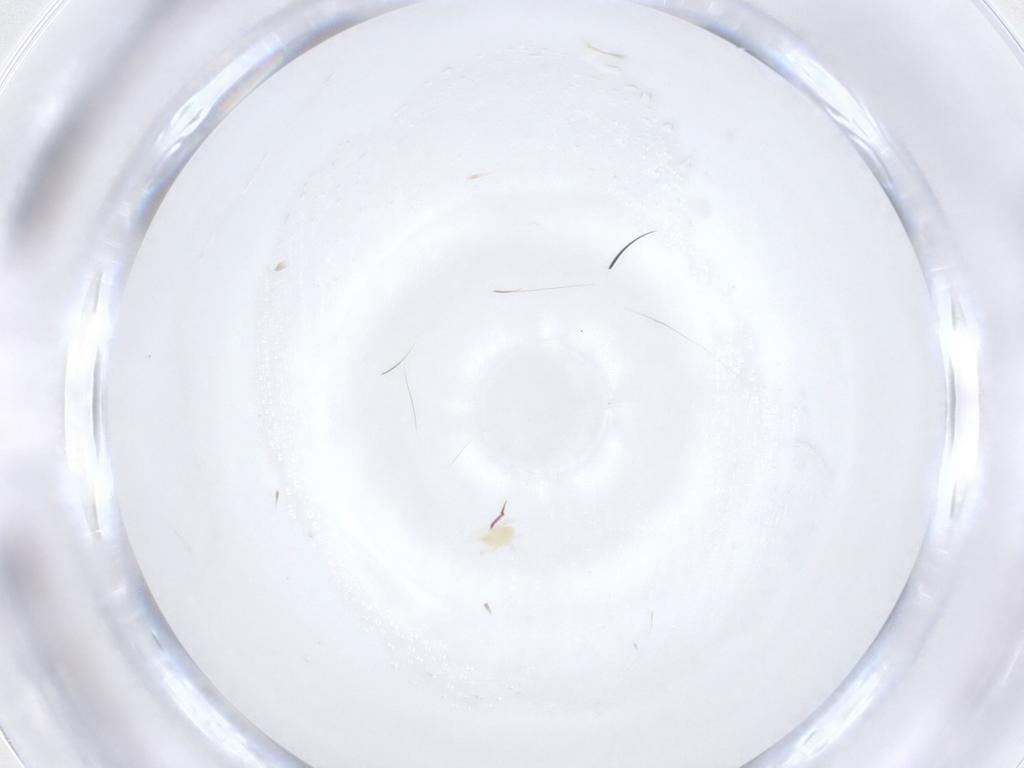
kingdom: Animalia
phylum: Arthropoda
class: Arachnida
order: Trombidiformes
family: Tetranychidae
